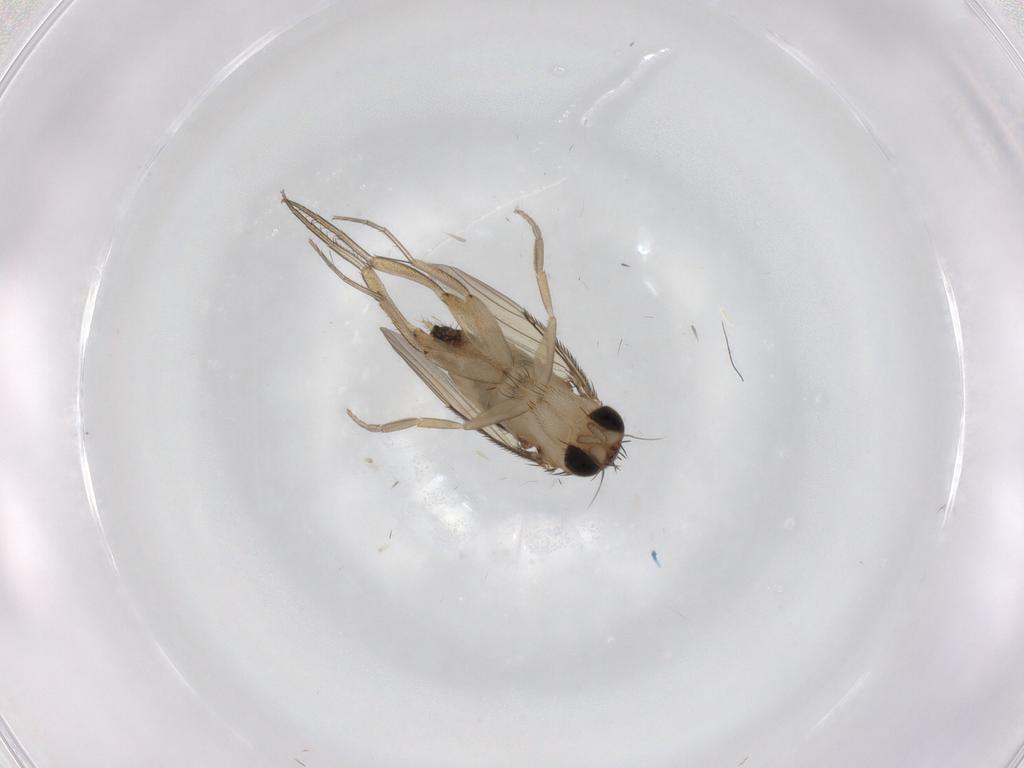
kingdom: Animalia
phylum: Arthropoda
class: Insecta
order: Diptera
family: Phoridae
